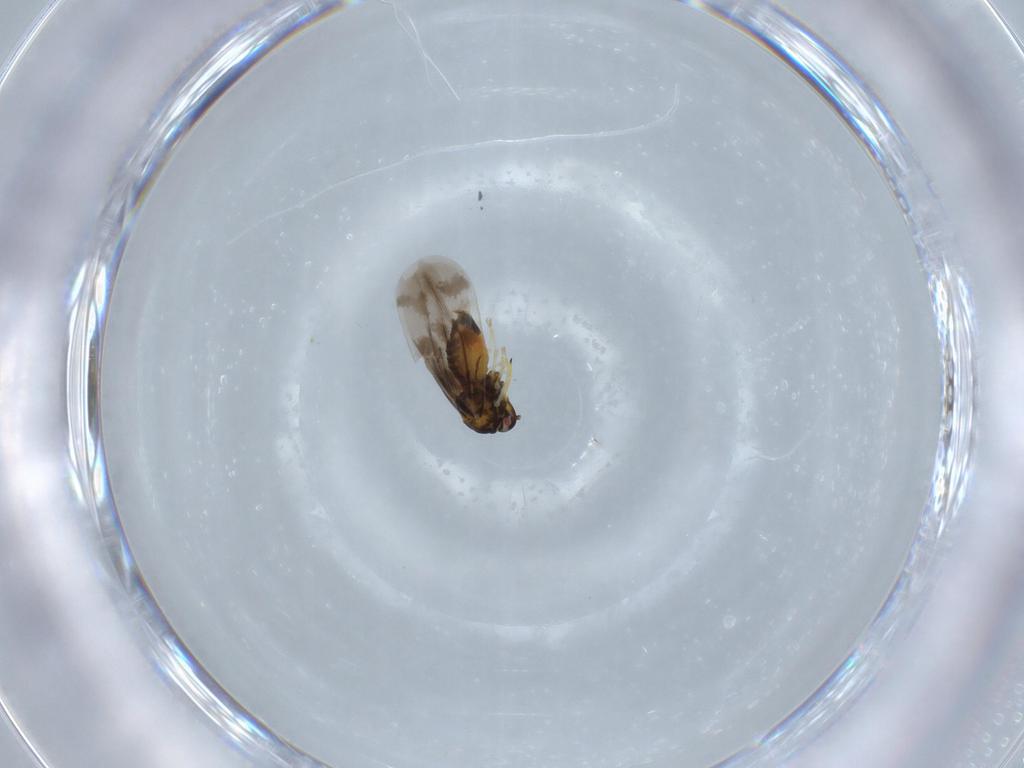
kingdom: Animalia
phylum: Arthropoda
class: Insecta
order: Hemiptera
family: Aleyrodidae
